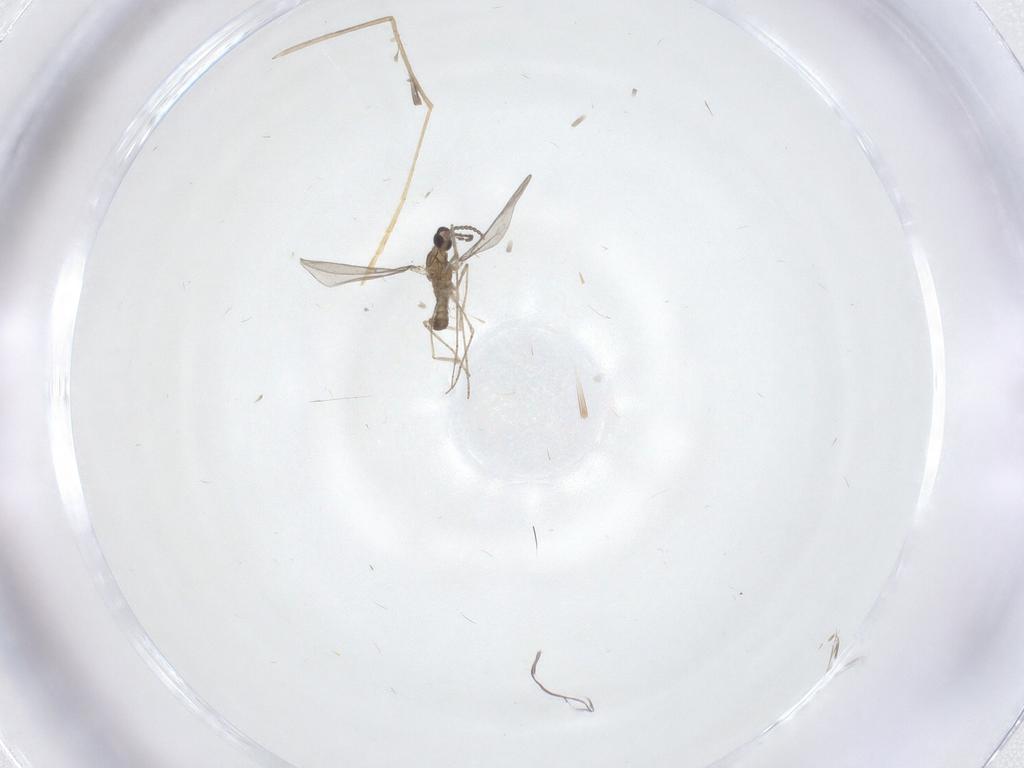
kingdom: Animalia
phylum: Arthropoda
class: Insecta
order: Diptera
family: Cecidomyiidae
